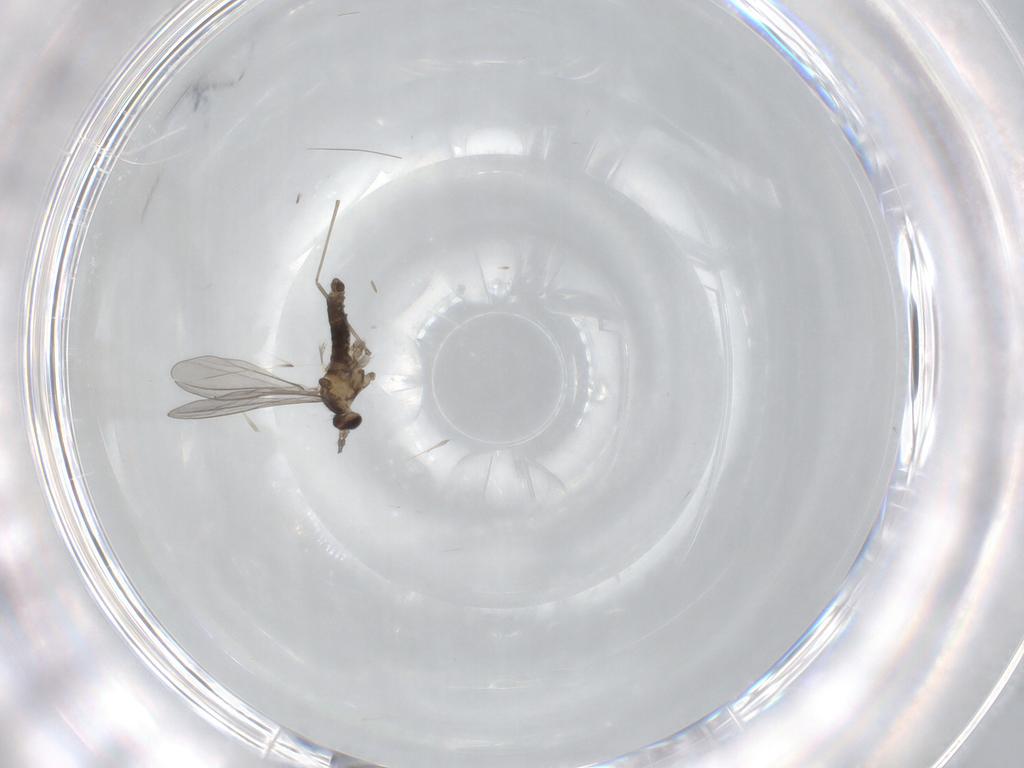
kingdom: Animalia
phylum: Arthropoda
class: Insecta
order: Diptera
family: Cecidomyiidae
